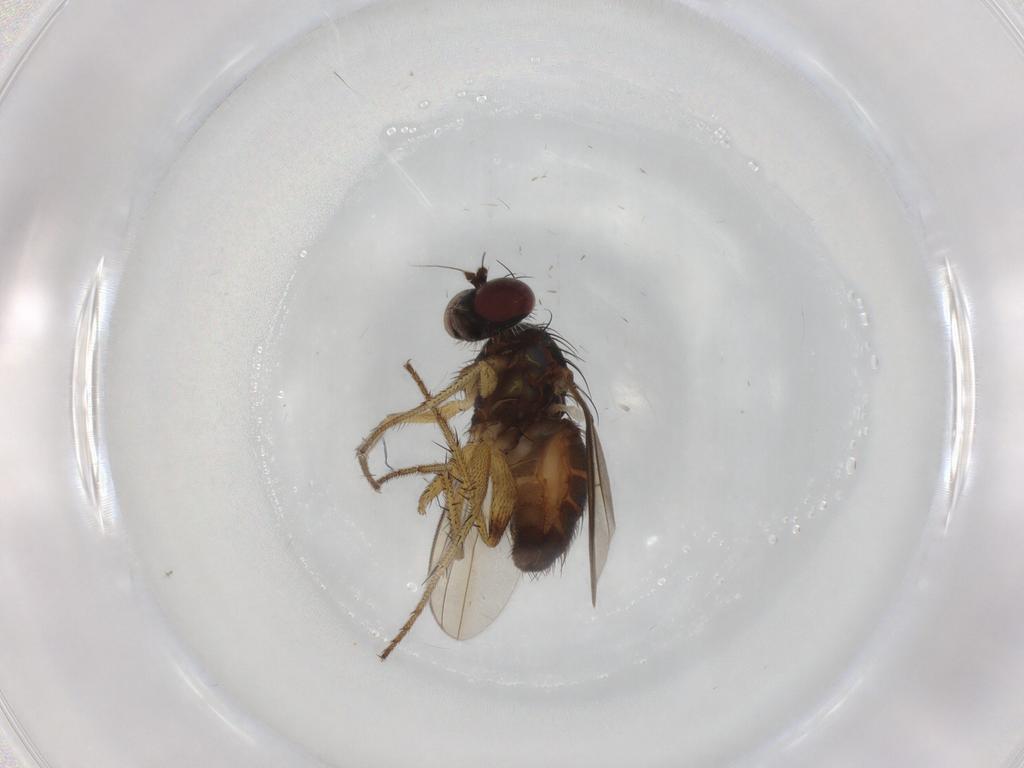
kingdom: Animalia
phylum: Arthropoda
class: Insecta
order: Diptera
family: Dolichopodidae
